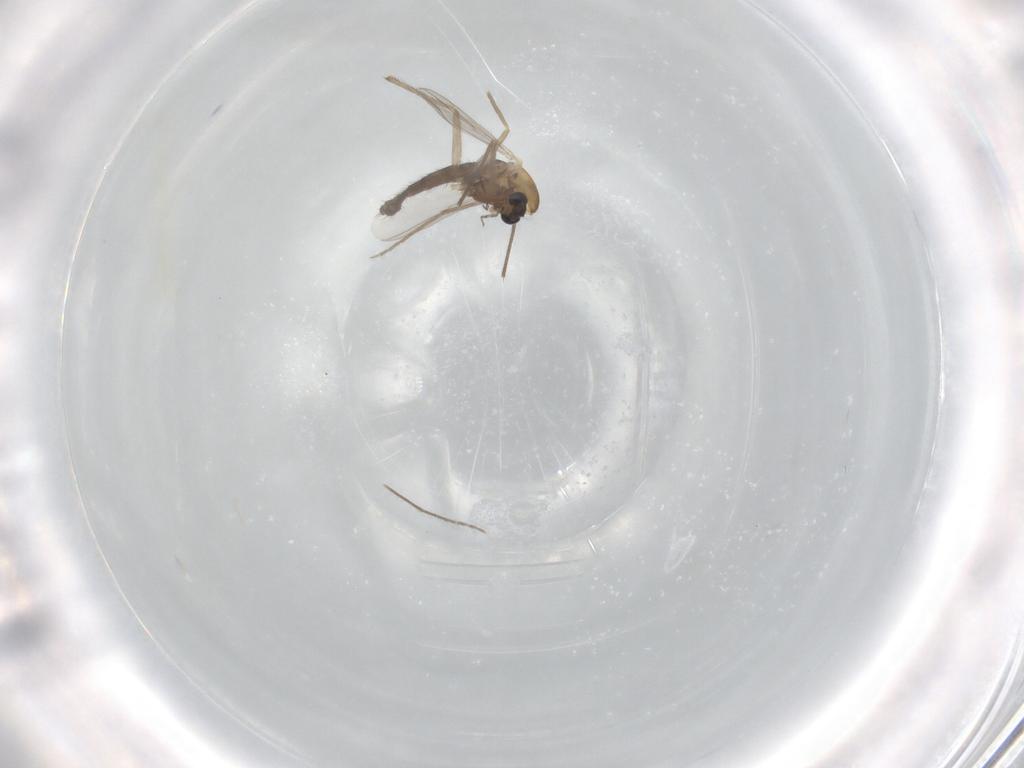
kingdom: Animalia
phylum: Arthropoda
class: Insecta
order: Diptera
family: Chironomidae
